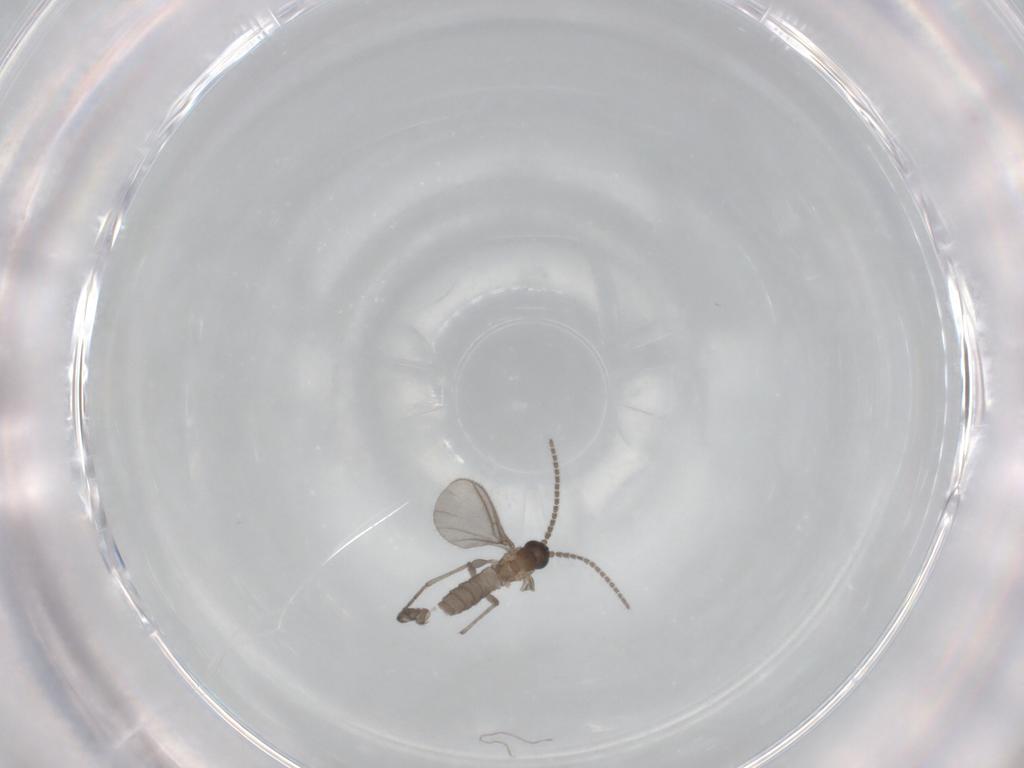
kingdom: Animalia
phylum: Arthropoda
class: Insecta
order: Diptera
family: Sciaridae
